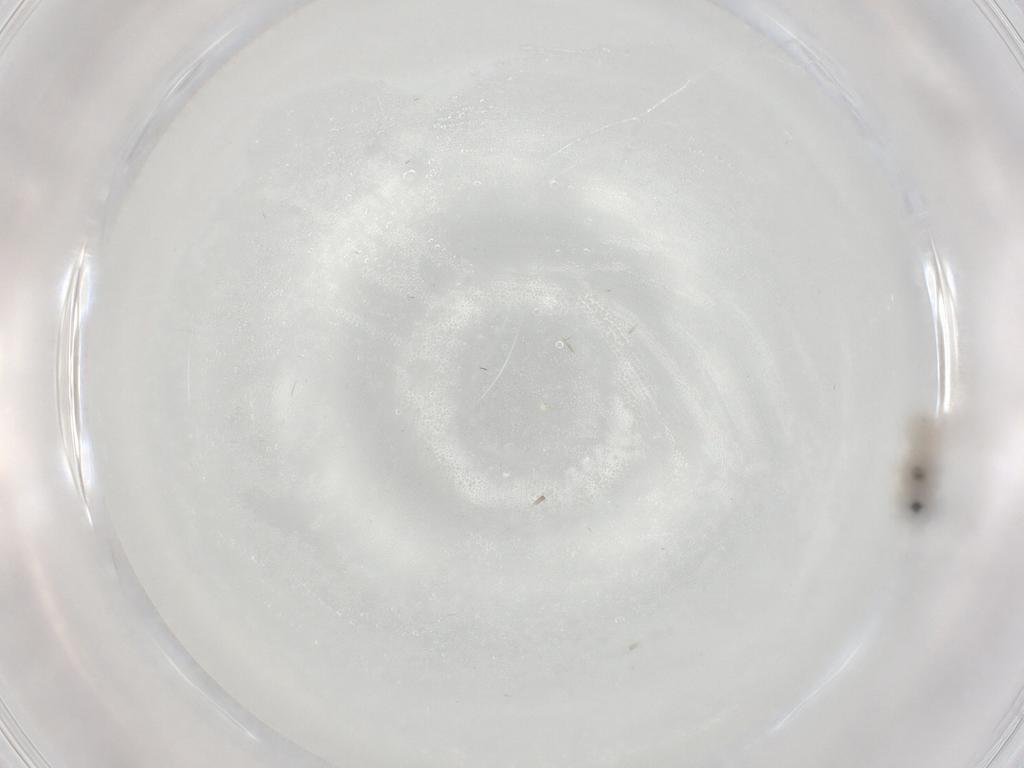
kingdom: Animalia
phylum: Arthropoda
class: Insecta
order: Diptera
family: Cecidomyiidae
